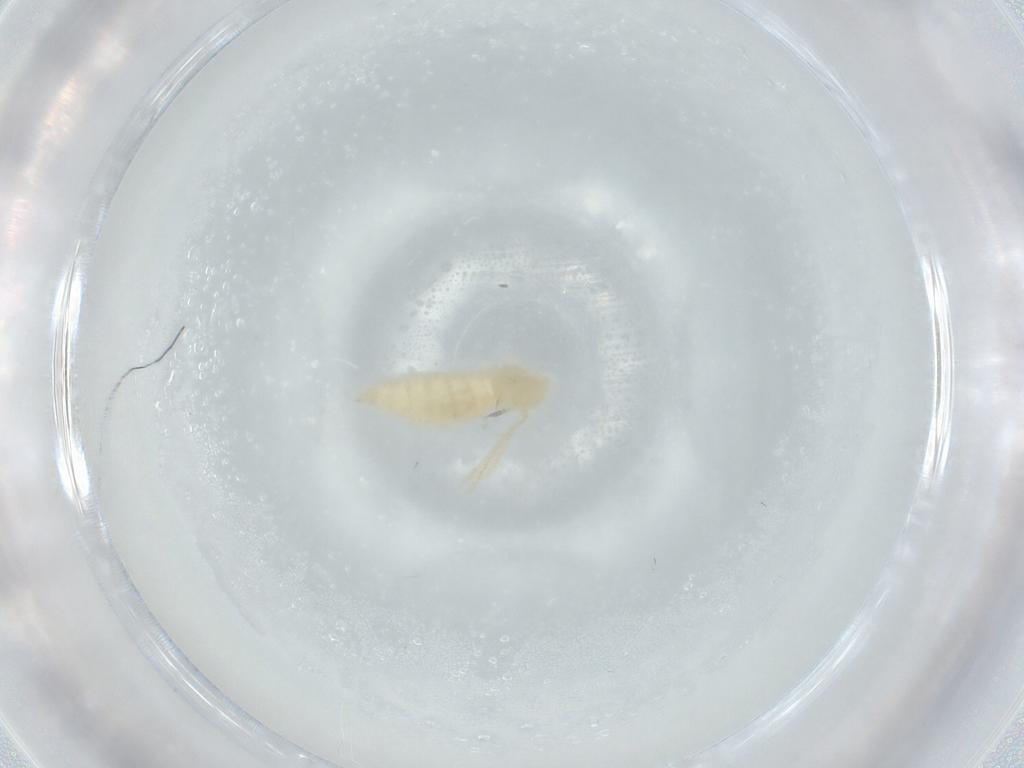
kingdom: Animalia
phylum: Arthropoda
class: Insecta
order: Diptera
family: Cecidomyiidae
